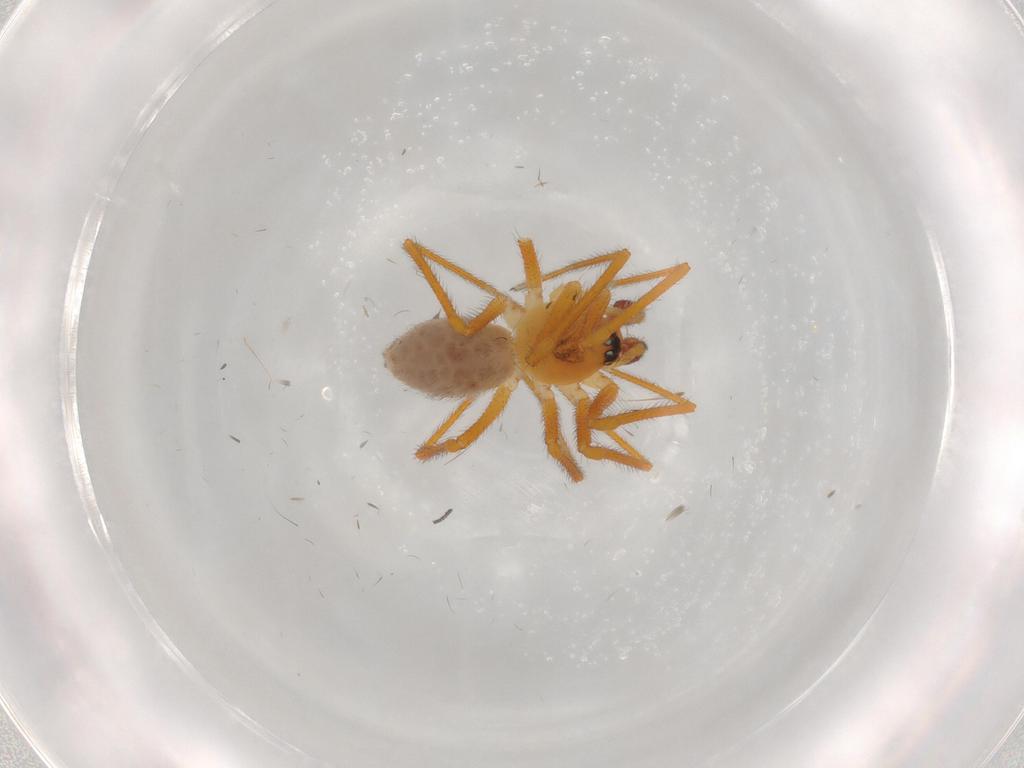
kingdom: Animalia
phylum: Arthropoda
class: Arachnida
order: Araneae
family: Linyphiidae
